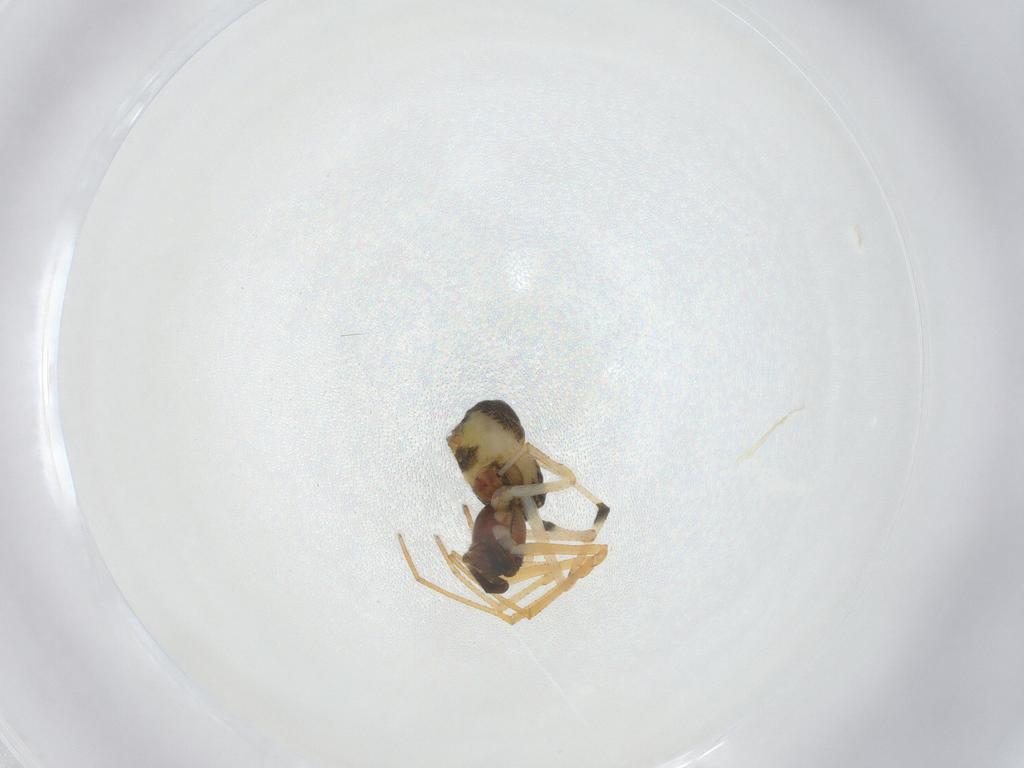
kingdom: Animalia
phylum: Arthropoda
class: Arachnida
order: Araneae
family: Theridiidae
